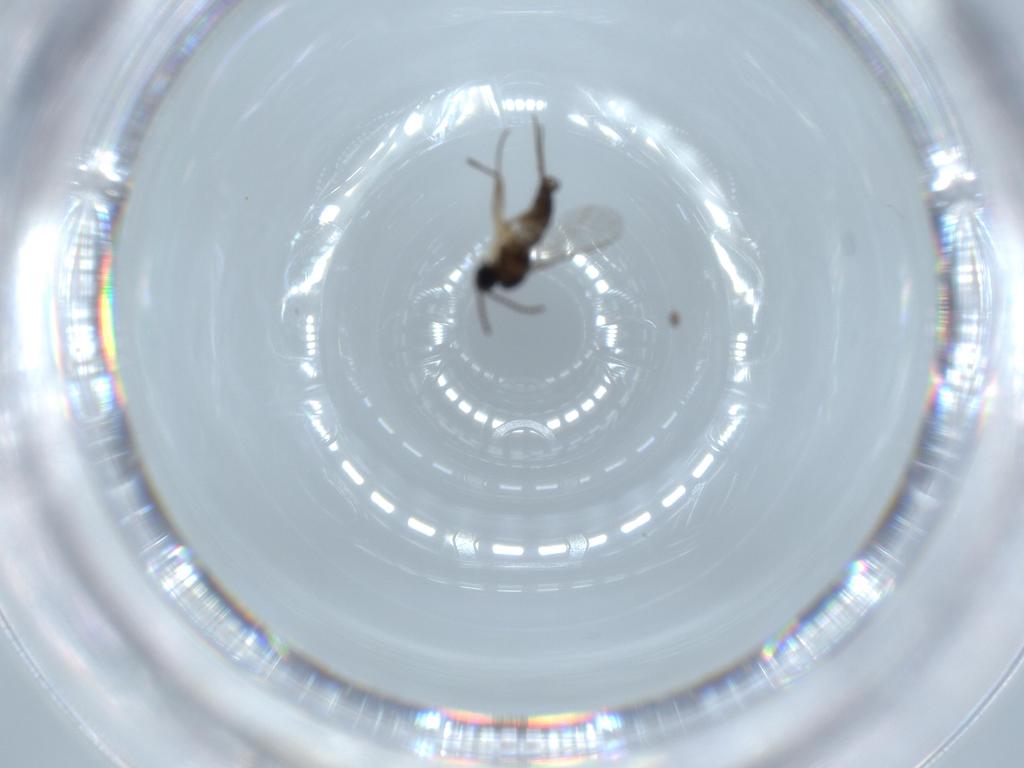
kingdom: Animalia
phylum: Arthropoda
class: Insecta
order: Diptera
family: Sciaridae
